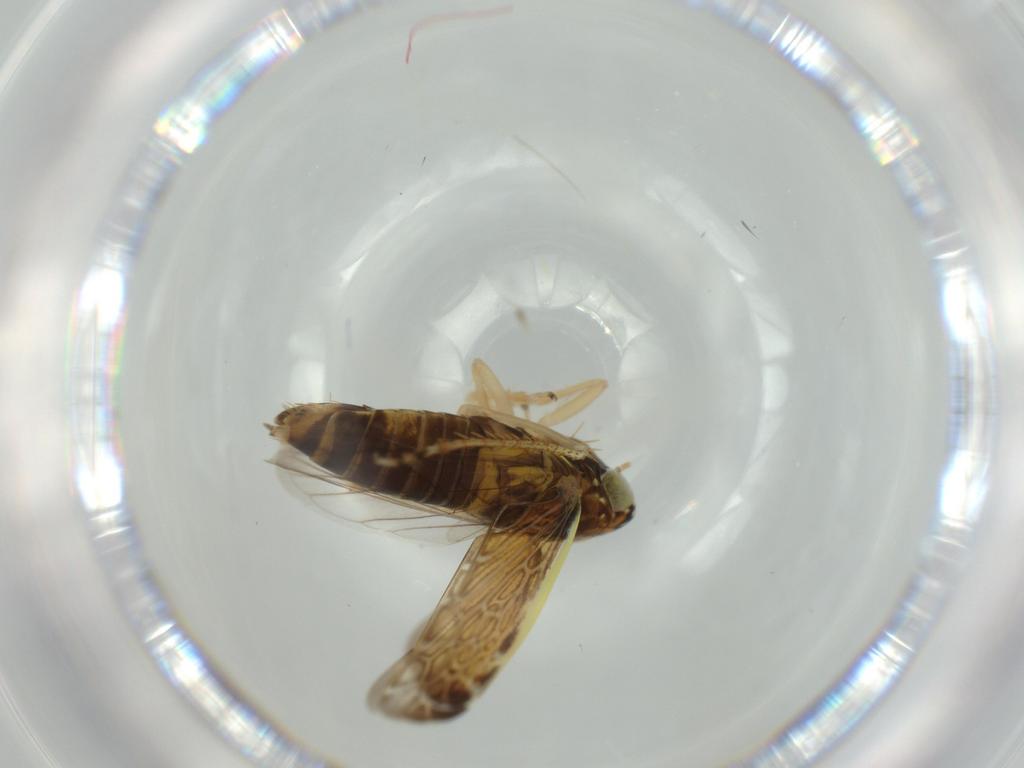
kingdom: Animalia
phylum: Arthropoda
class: Insecta
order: Hemiptera
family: Cicadellidae
